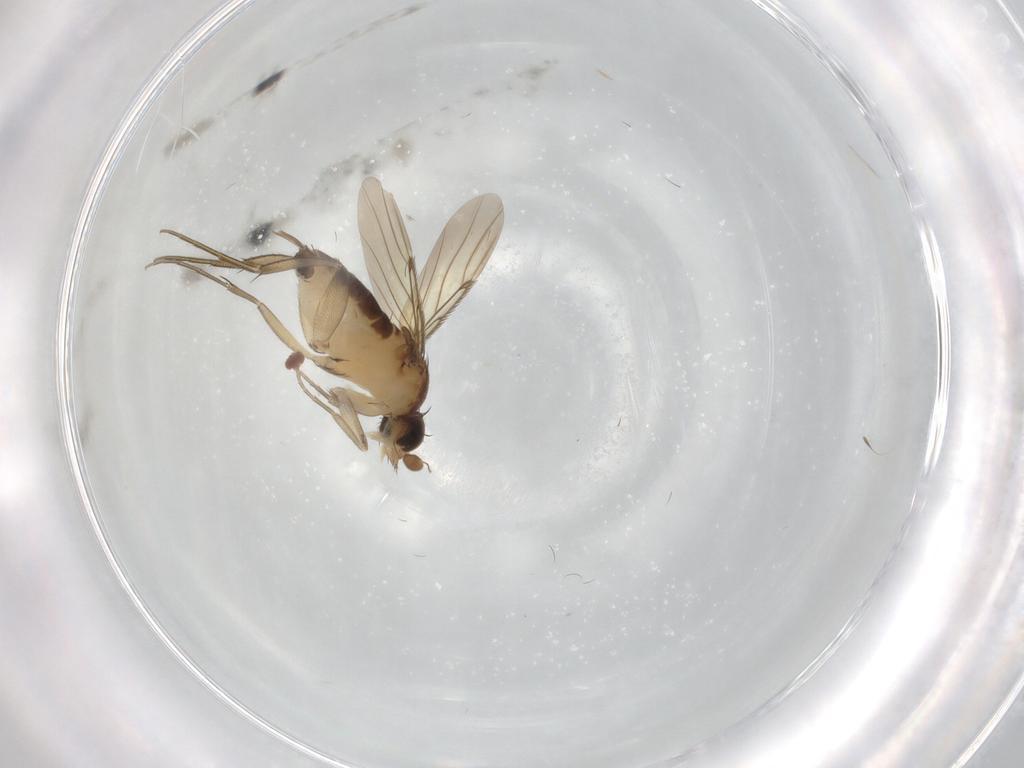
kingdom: Animalia
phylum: Arthropoda
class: Insecta
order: Diptera
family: Phoridae
